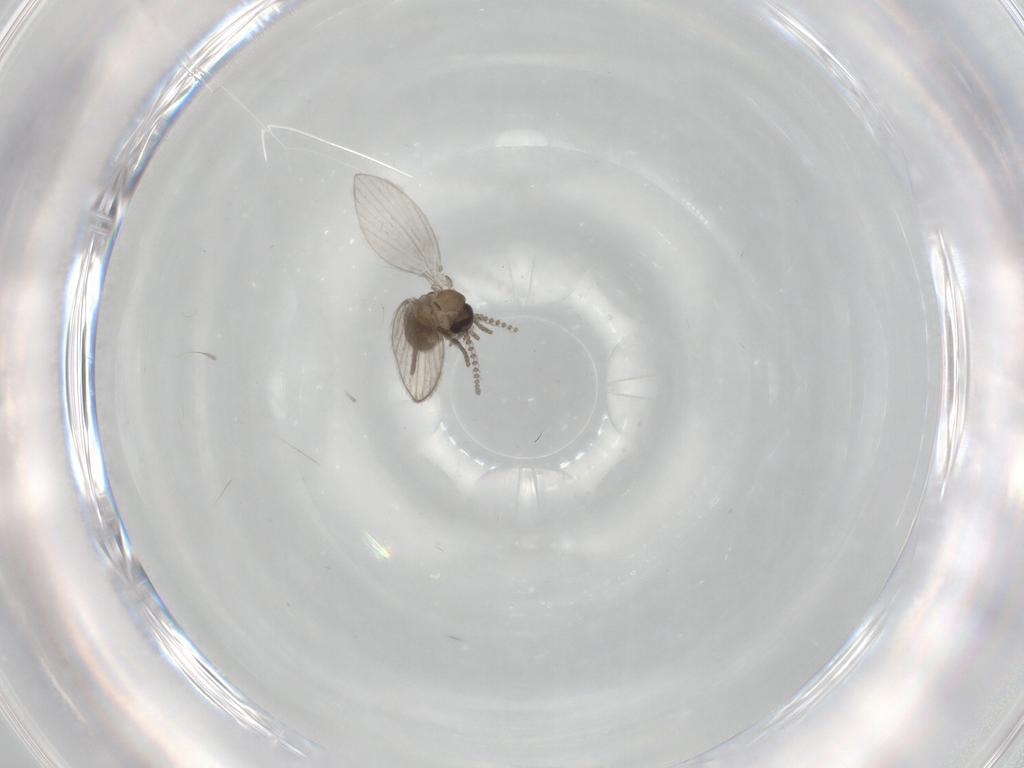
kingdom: Animalia
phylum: Arthropoda
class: Insecta
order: Diptera
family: Psychodidae
